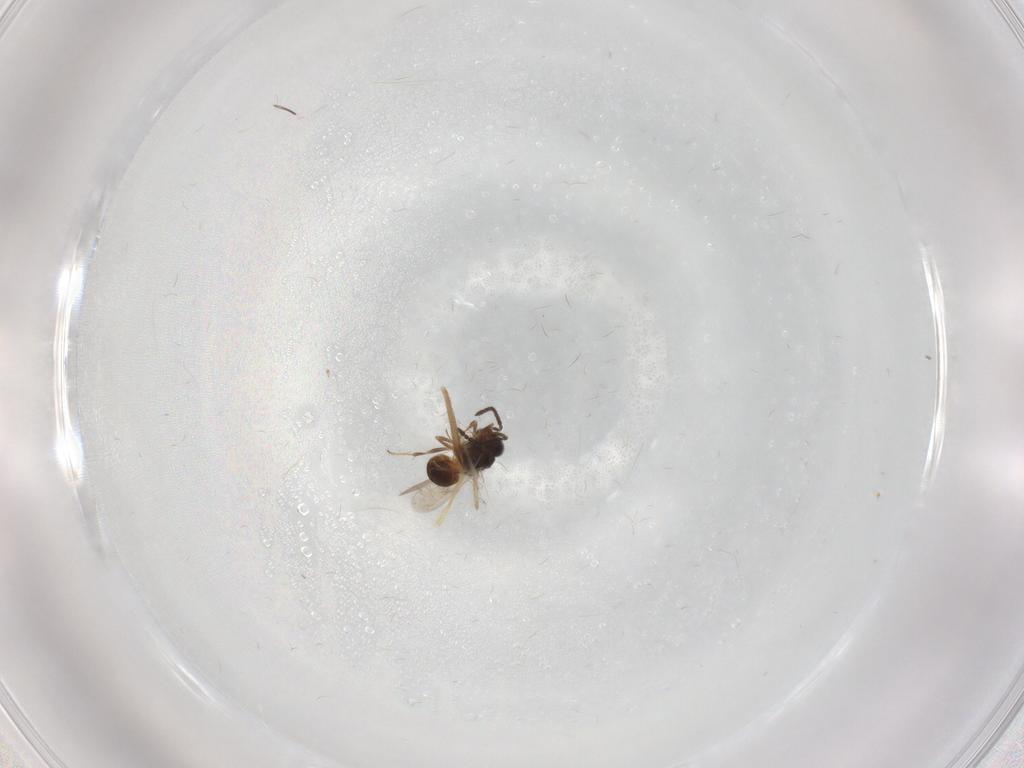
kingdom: Animalia
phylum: Arthropoda
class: Insecta
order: Hymenoptera
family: Scelionidae
